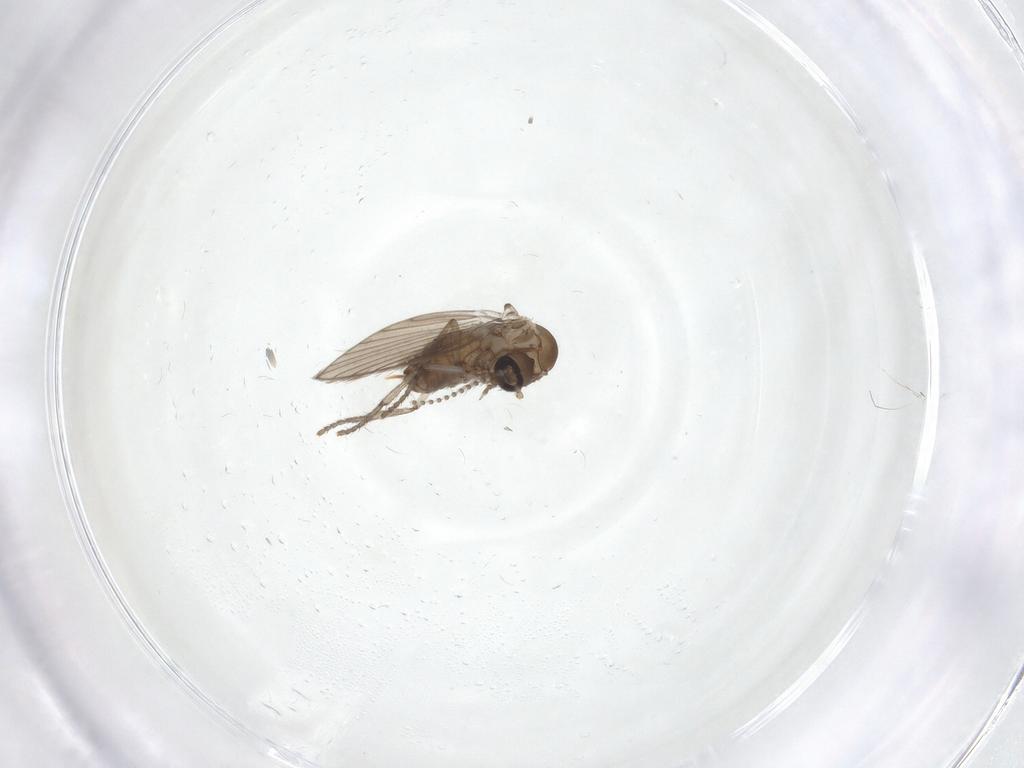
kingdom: Animalia
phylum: Arthropoda
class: Insecta
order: Diptera
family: Psychodidae
